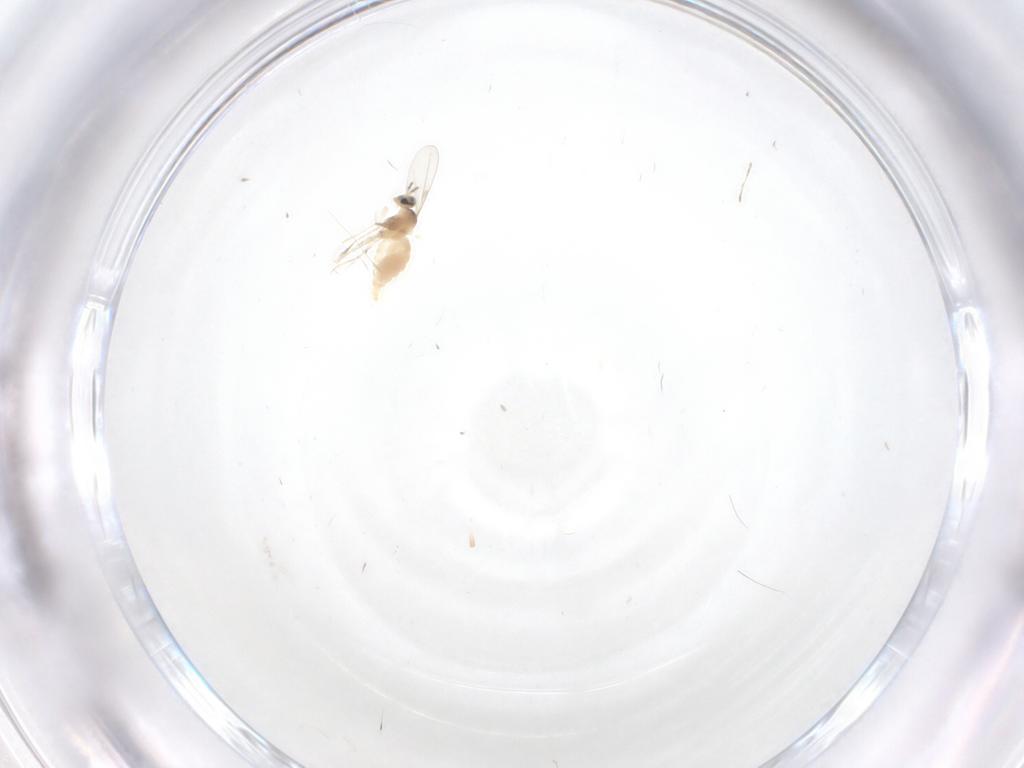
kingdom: Animalia
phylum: Arthropoda
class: Insecta
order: Diptera
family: Cecidomyiidae
